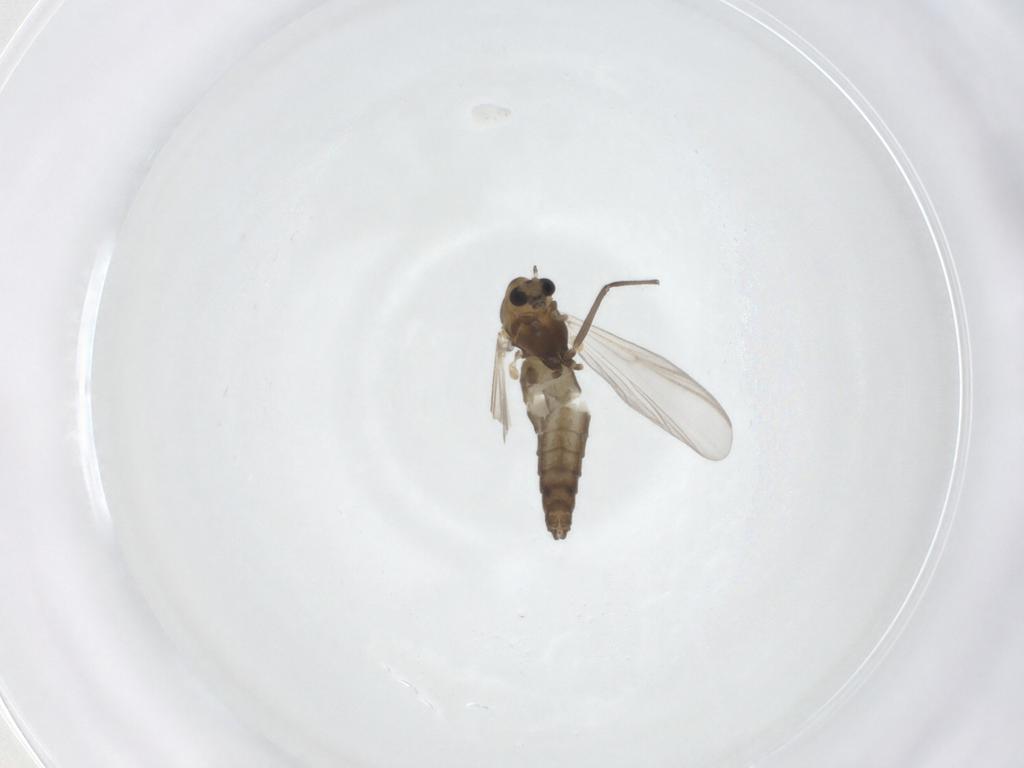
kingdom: Animalia
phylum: Arthropoda
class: Insecta
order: Diptera
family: Chironomidae
